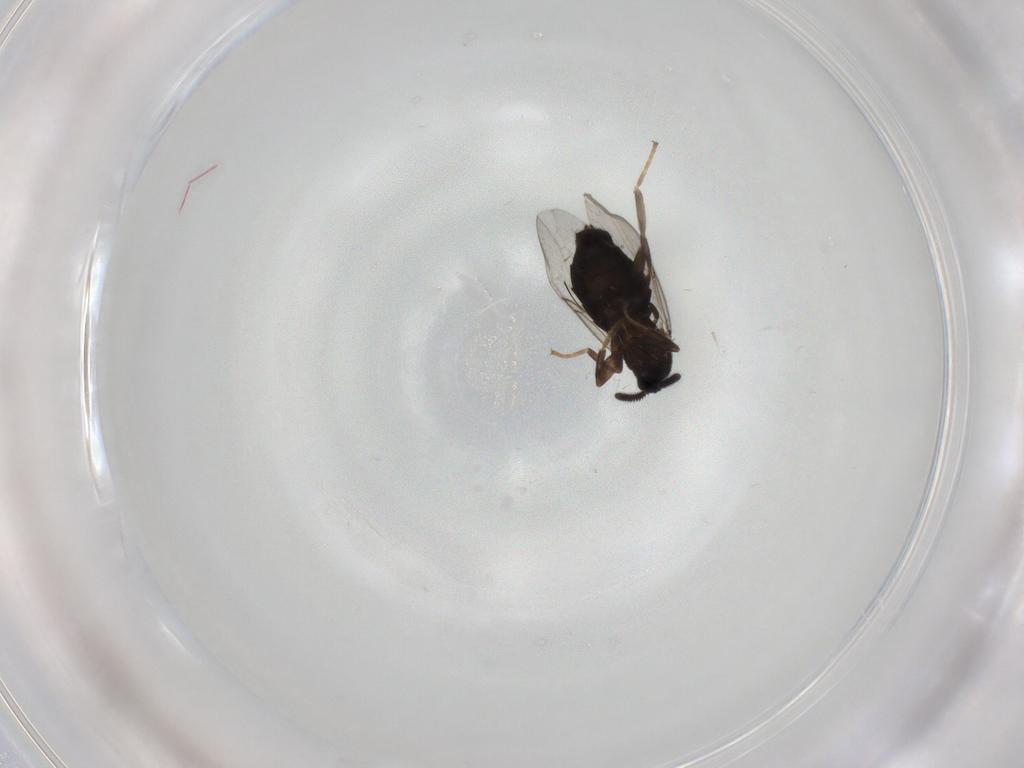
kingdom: Animalia
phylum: Arthropoda
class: Insecta
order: Diptera
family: Scatopsidae
